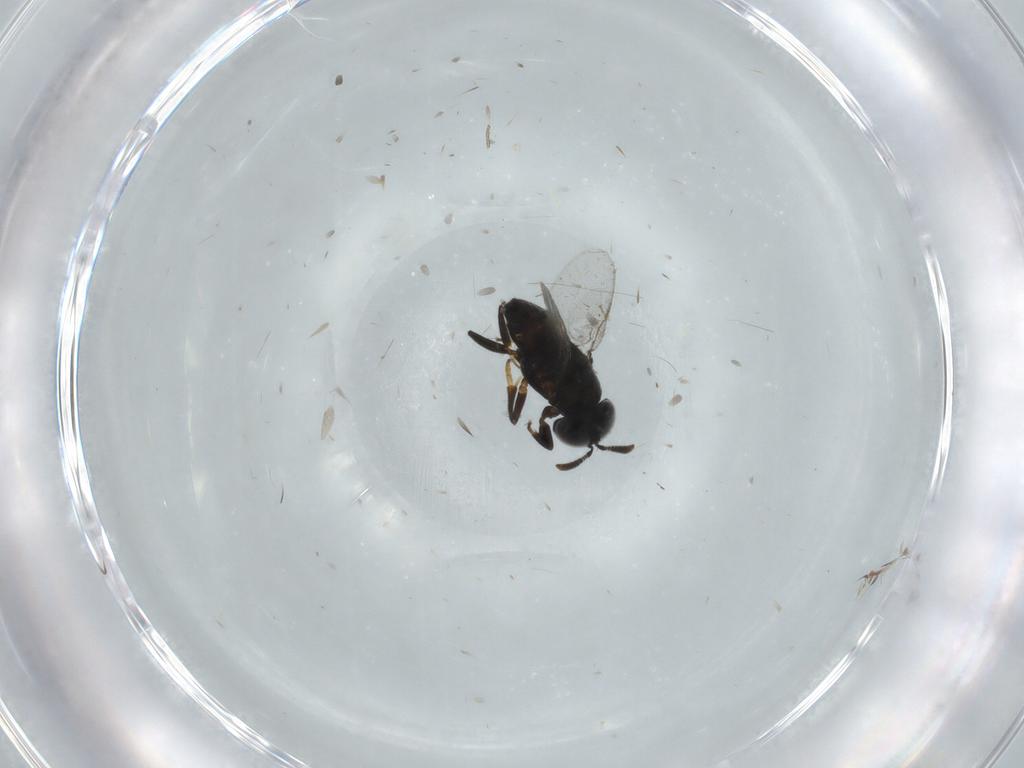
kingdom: Animalia
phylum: Arthropoda
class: Insecta
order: Hymenoptera
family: Encyrtidae
